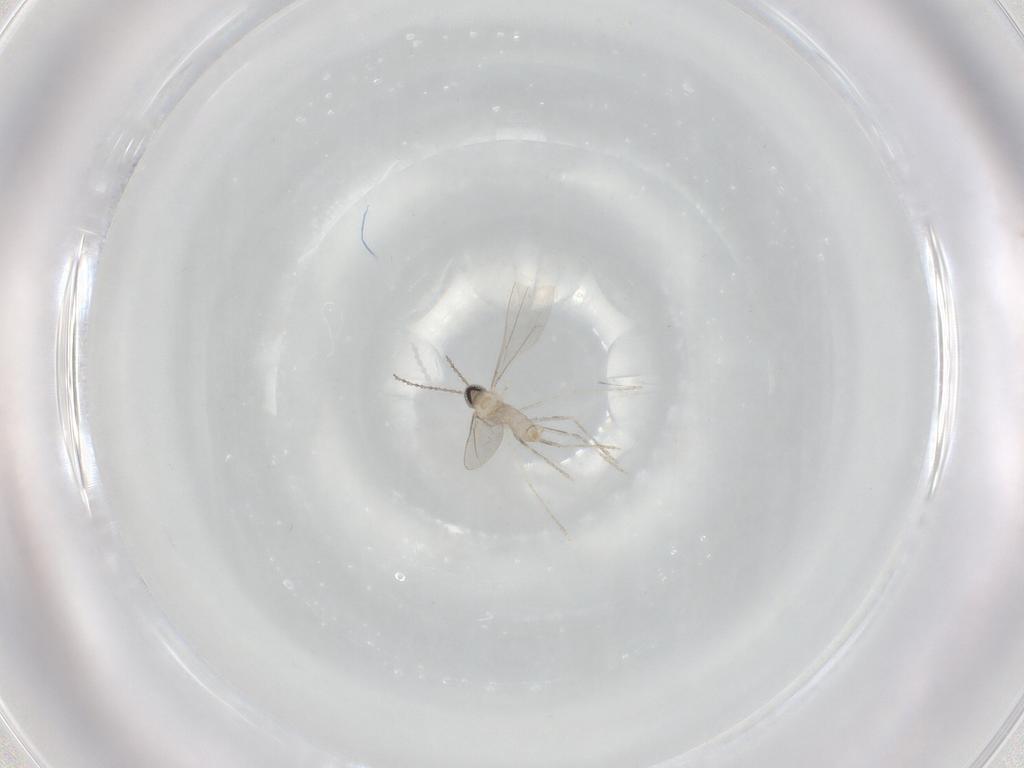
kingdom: Animalia
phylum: Arthropoda
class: Insecta
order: Diptera
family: Cecidomyiidae
